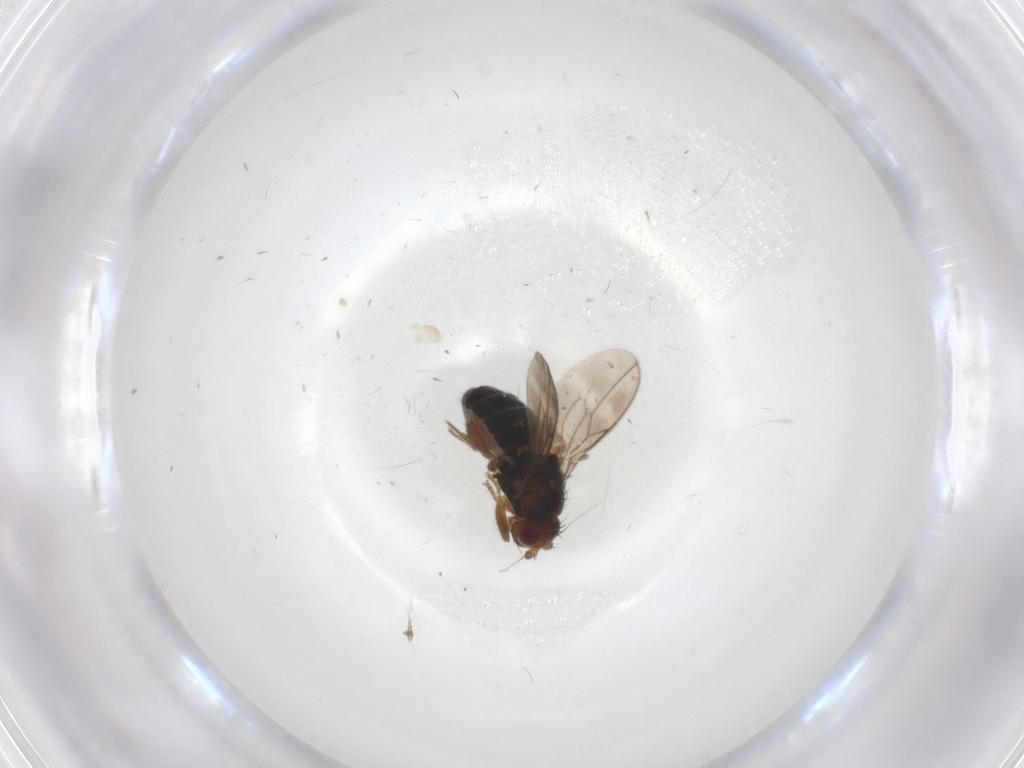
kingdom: Animalia
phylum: Arthropoda
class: Insecta
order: Diptera
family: Sphaeroceridae
